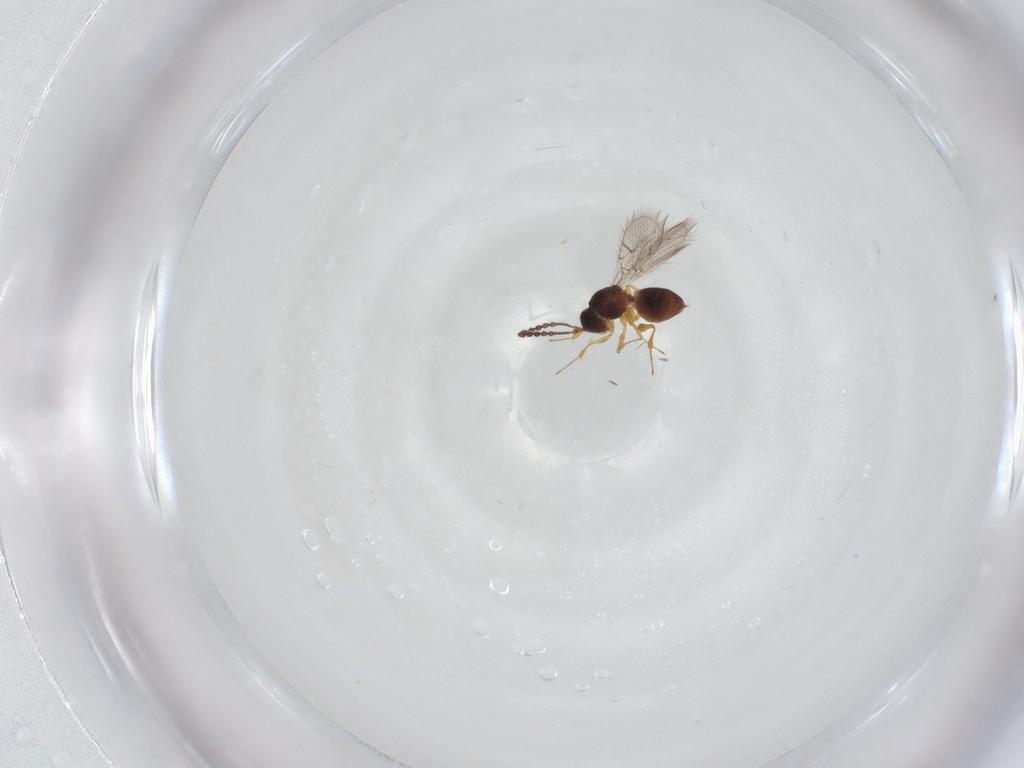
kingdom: Animalia
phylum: Arthropoda
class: Insecta
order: Hymenoptera
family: Figitidae
